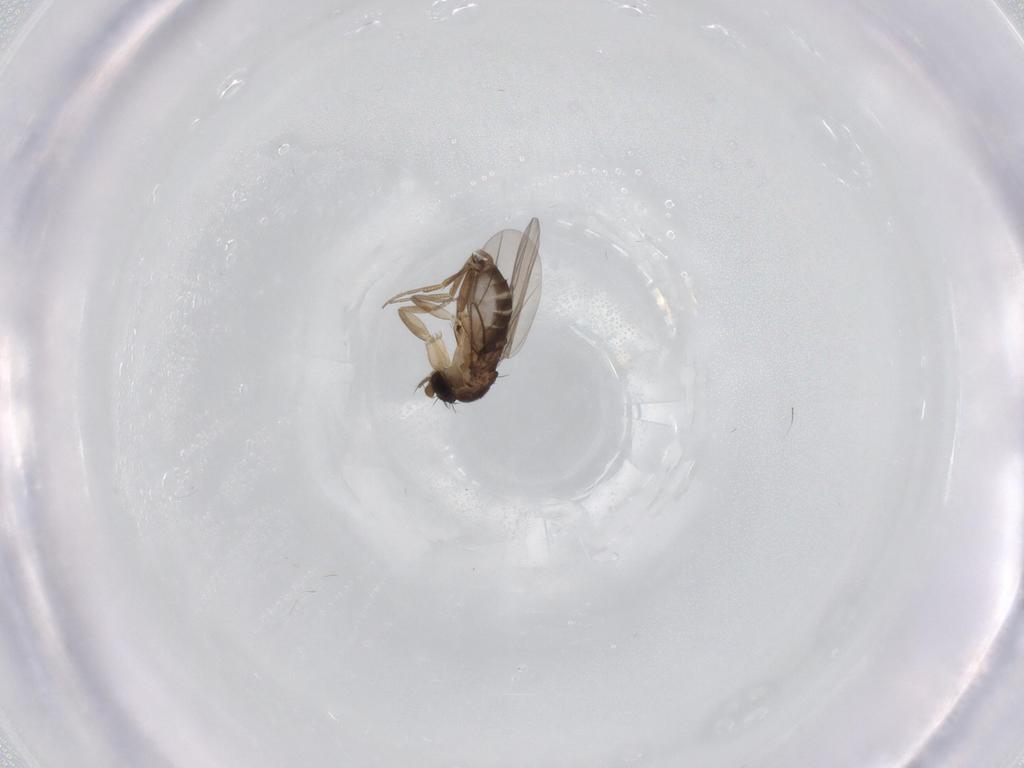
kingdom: Animalia
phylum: Arthropoda
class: Insecta
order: Diptera
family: Phoridae
